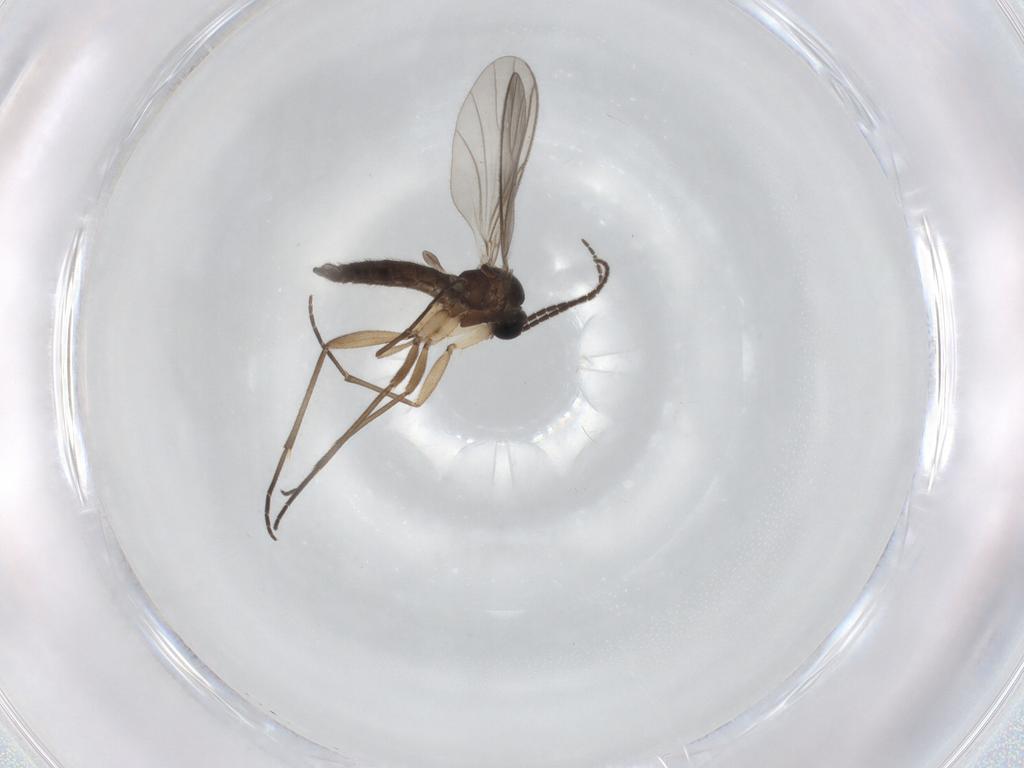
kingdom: Animalia
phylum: Arthropoda
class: Insecta
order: Diptera
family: Sciaridae
